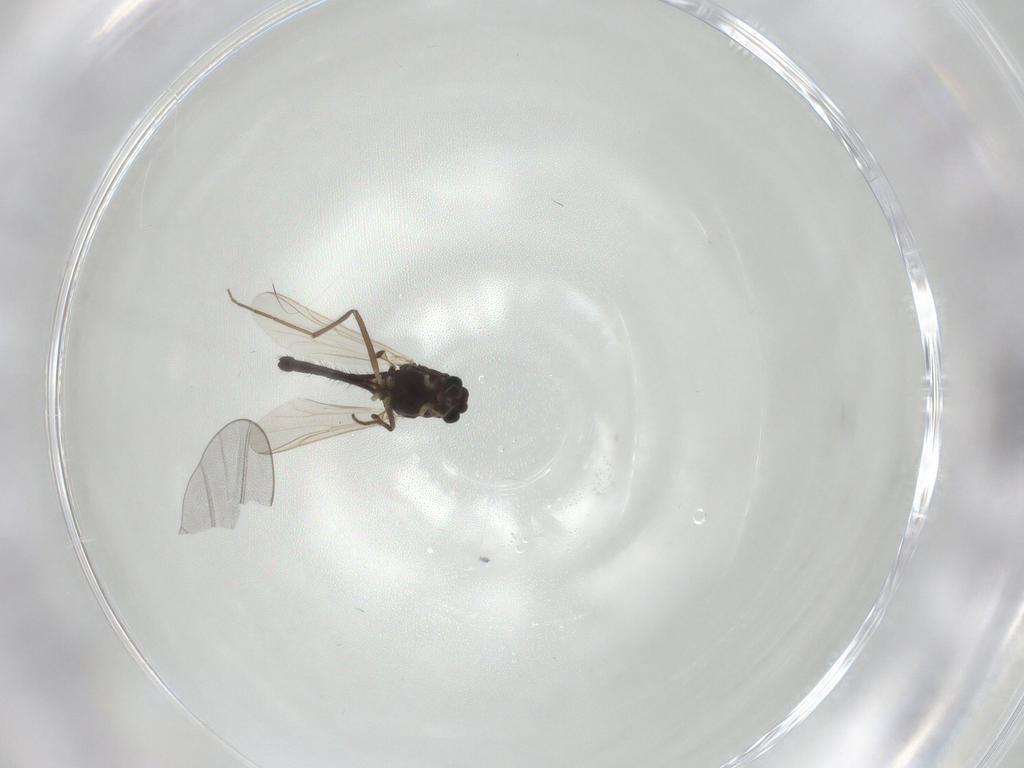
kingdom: Animalia
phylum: Arthropoda
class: Insecta
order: Diptera
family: Chironomidae
